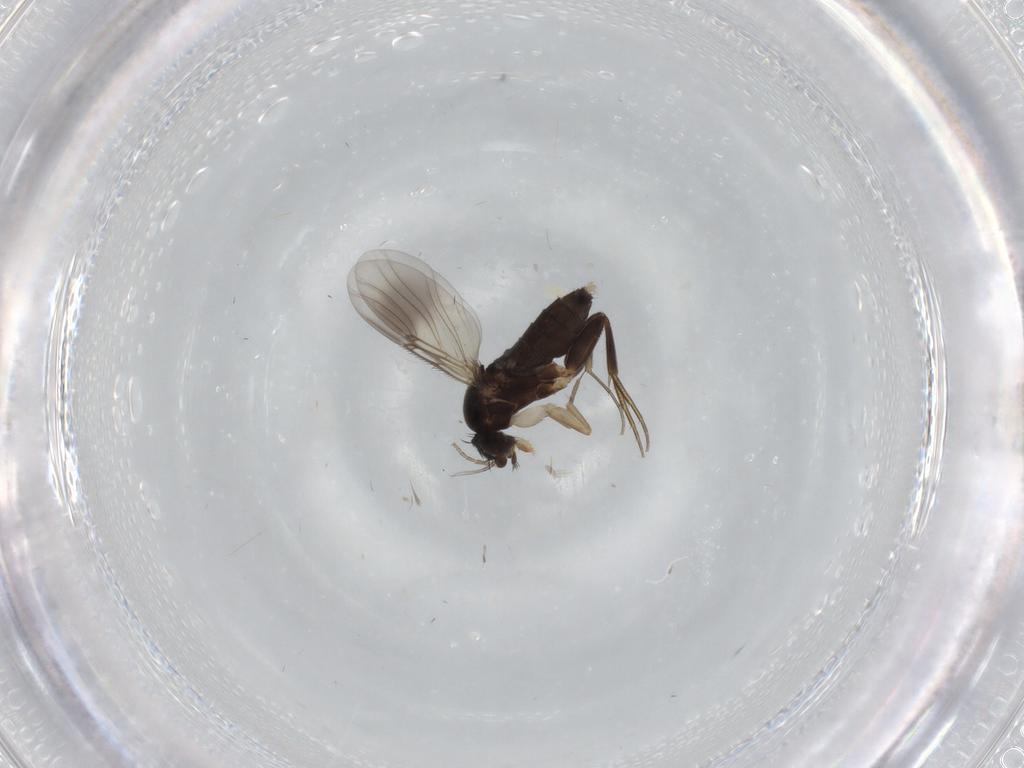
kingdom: Animalia
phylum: Arthropoda
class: Insecta
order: Diptera
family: Phoridae
